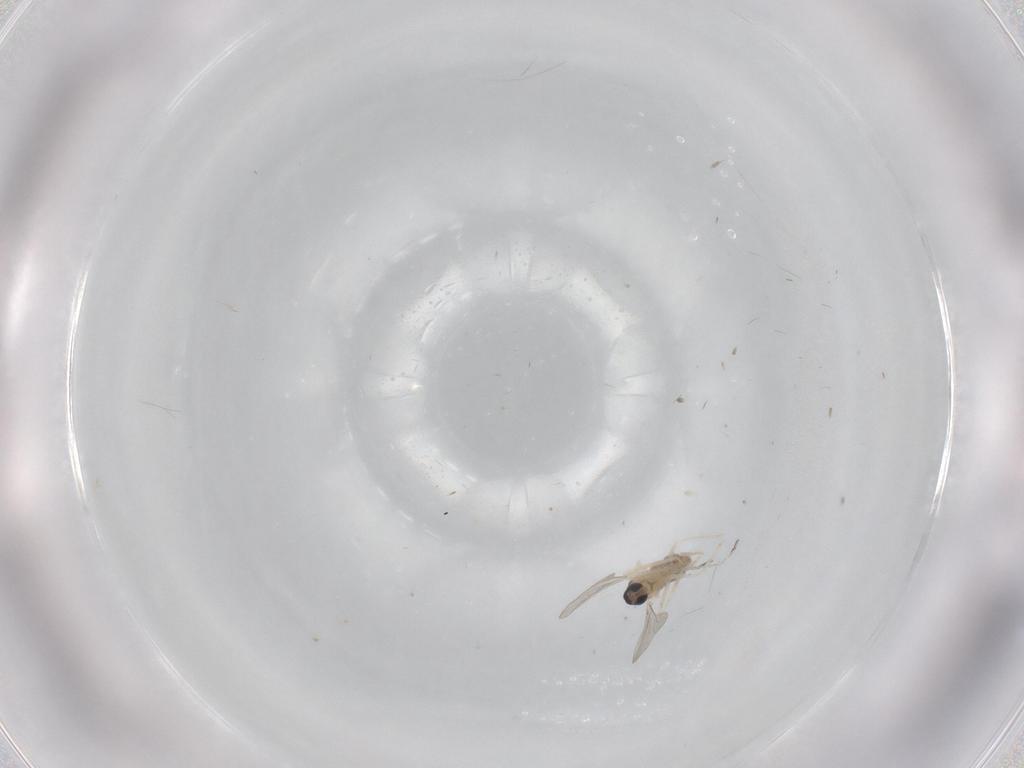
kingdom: Animalia
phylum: Arthropoda
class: Insecta
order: Diptera
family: Cecidomyiidae
